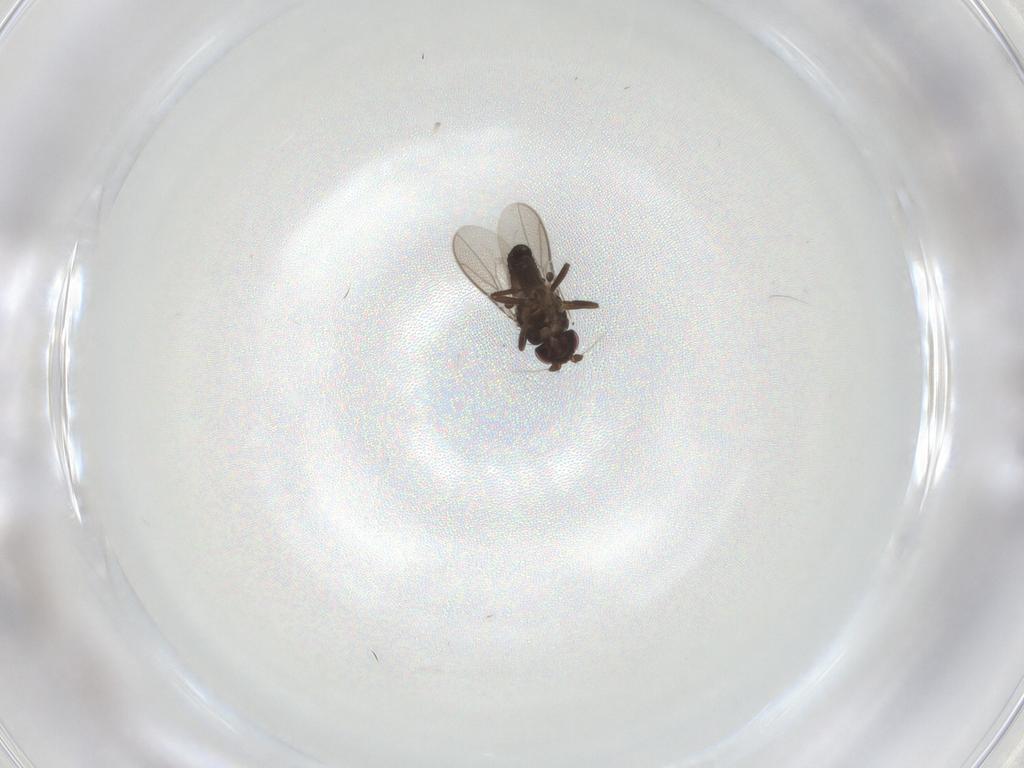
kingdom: Animalia
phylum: Arthropoda
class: Insecta
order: Diptera
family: Sphaeroceridae
